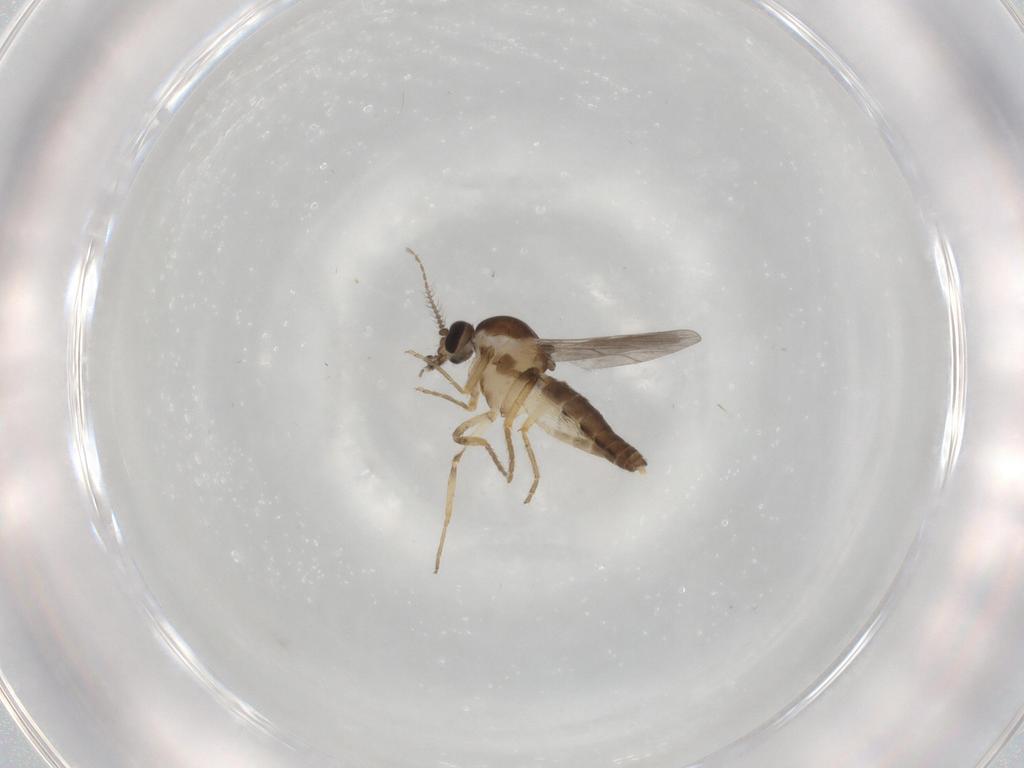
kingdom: Animalia
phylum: Arthropoda
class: Insecta
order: Diptera
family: Ceratopogonidae
